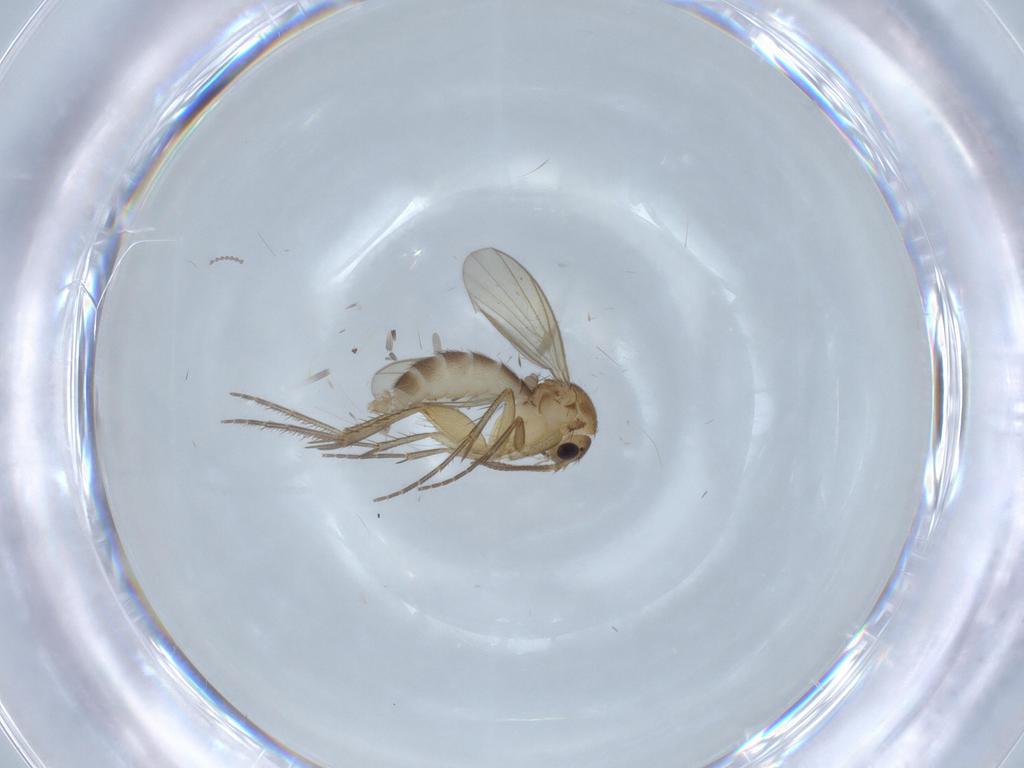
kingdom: Animalia
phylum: Arthropoda
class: Insecta
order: Diptera
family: Mycetophilidae
